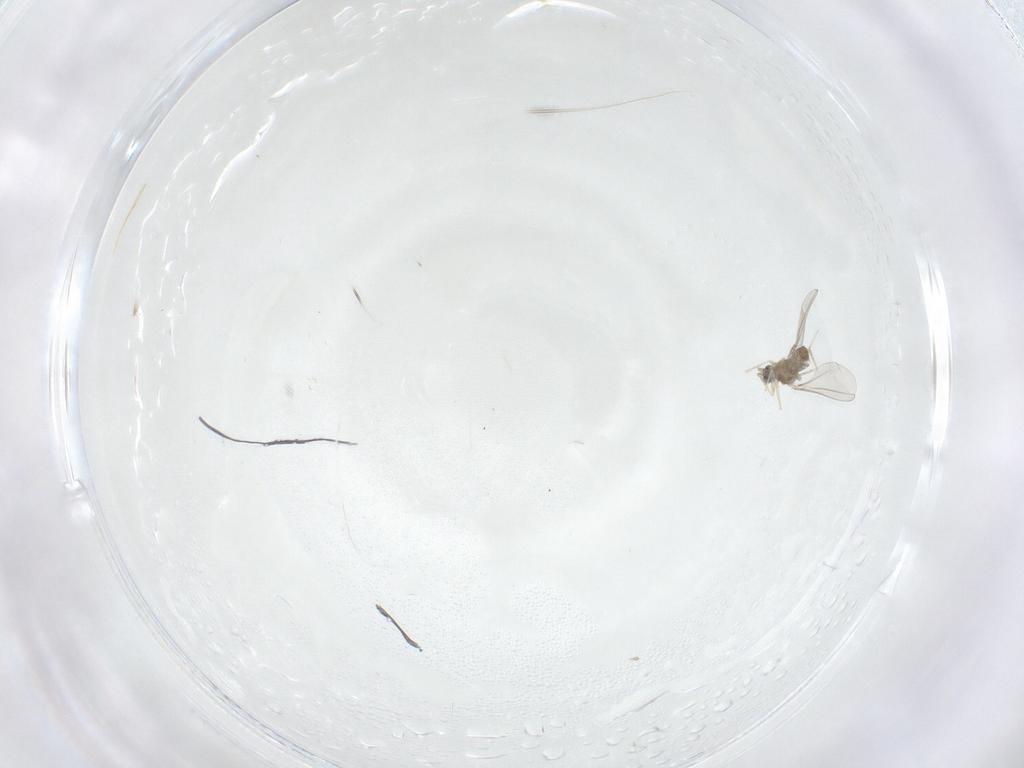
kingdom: Animalia
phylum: Arthropoda
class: Insecta
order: Diptera
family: Cecidomyiidae
